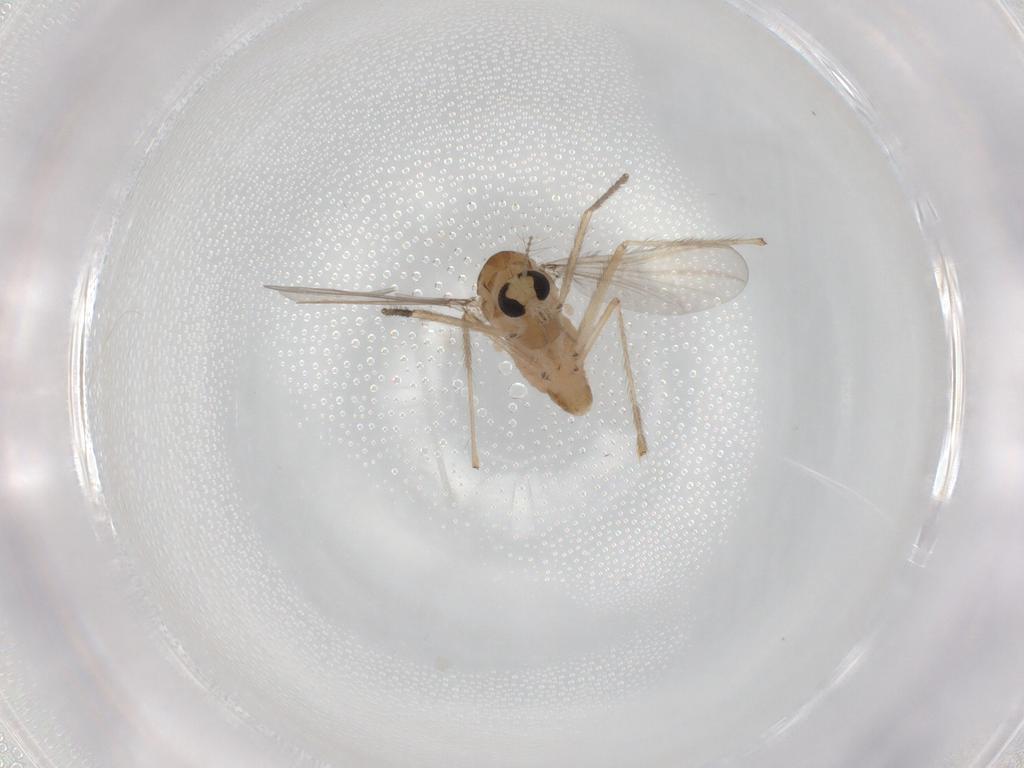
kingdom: Animalia
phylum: Arthropoda
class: Insecta
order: Diptera
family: Chironomidae
